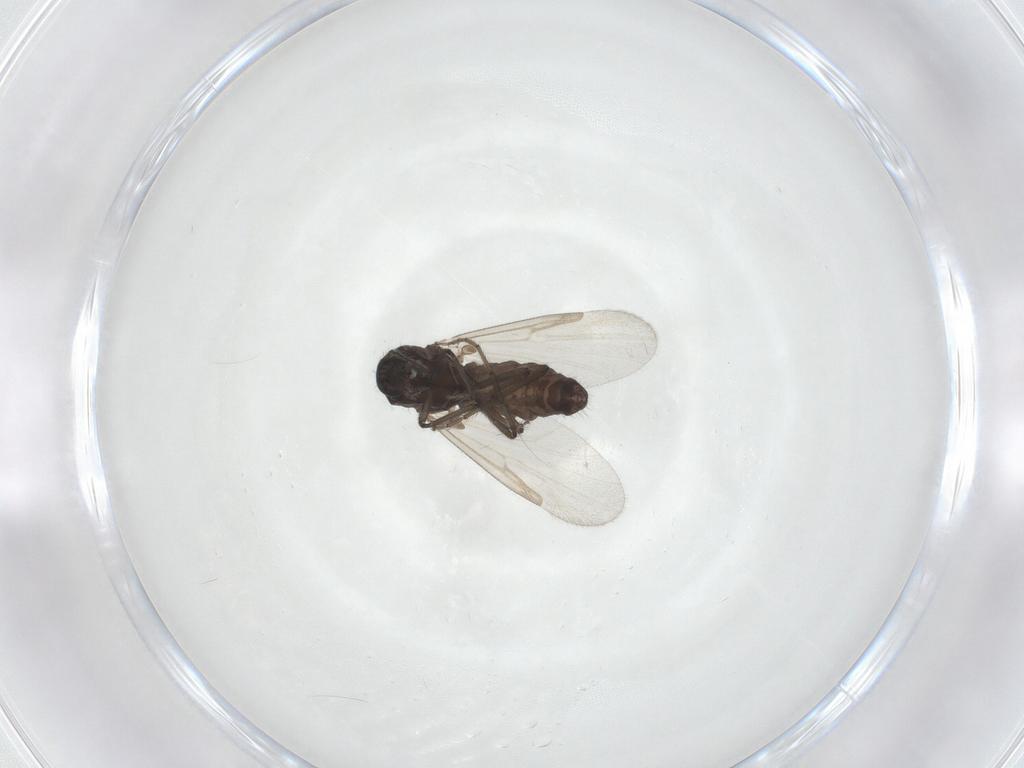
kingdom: Animalia
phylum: Arthropoda
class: Insecta
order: Diptera
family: Ceratopogonidae
